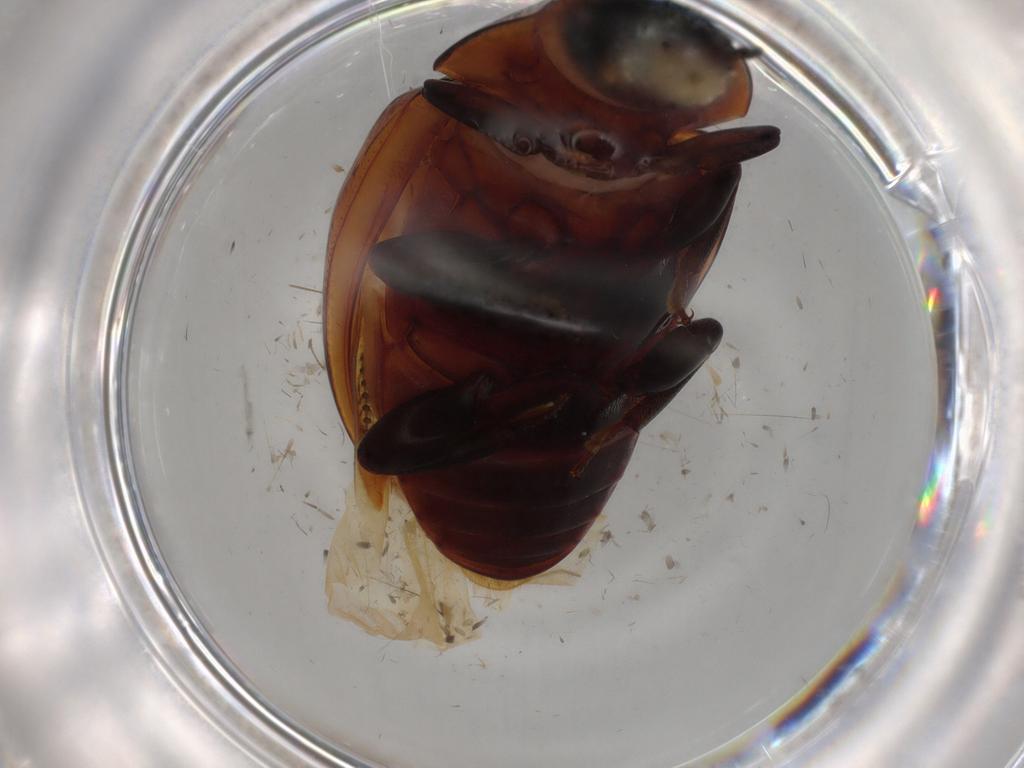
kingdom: Animalia
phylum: Arthropoda
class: Insecta
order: Coleoptera
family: Zopheridae
